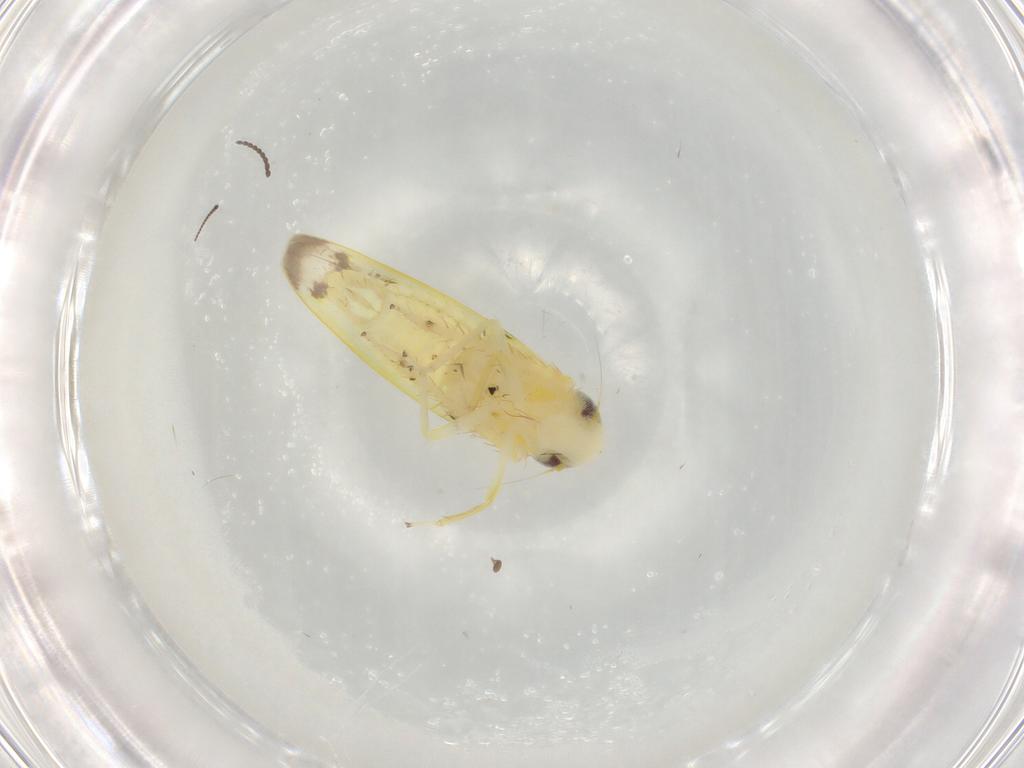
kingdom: Animalia
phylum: Arthropoda
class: Insecta
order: Hemiptera
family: Cicadellidae
